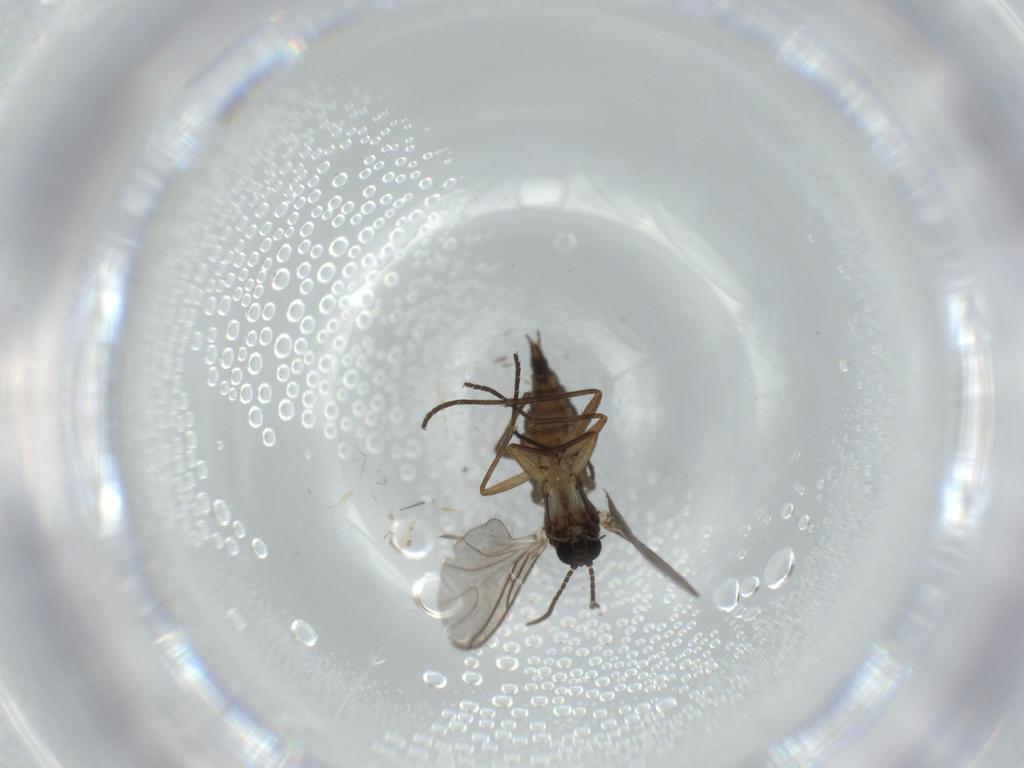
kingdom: Animalia
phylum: Arthropoda
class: Insecta
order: Diptera
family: Sciaridae
